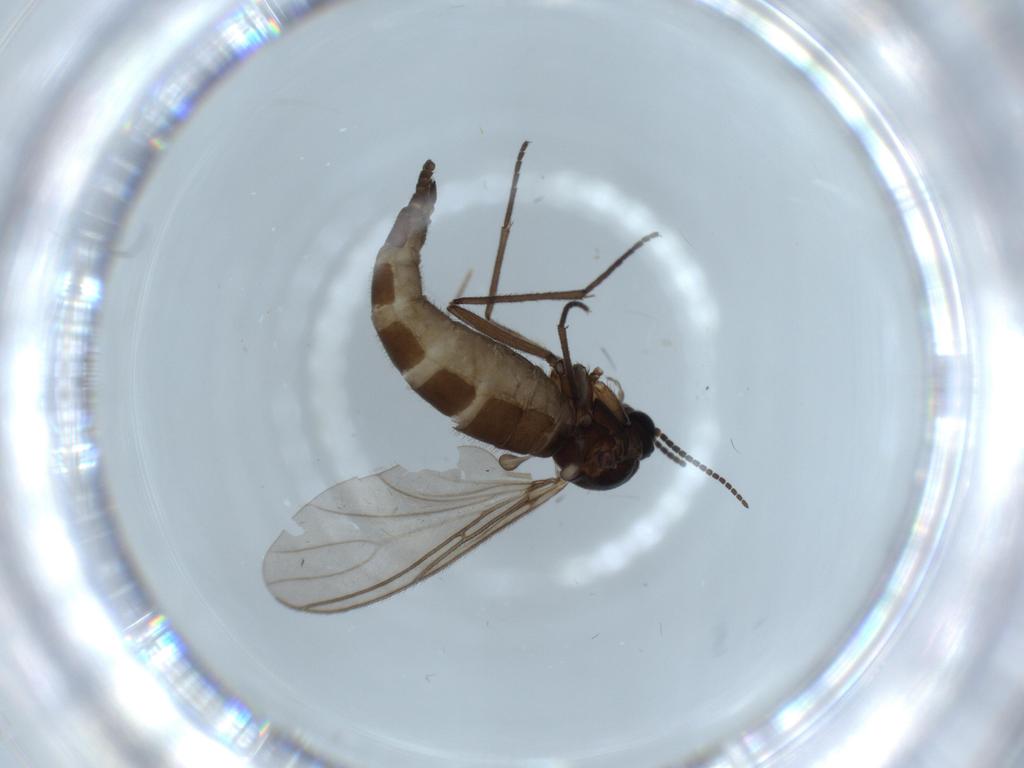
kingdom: Animalia
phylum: Arthropoda
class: Insecta
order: Diptera
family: Sciaridae
